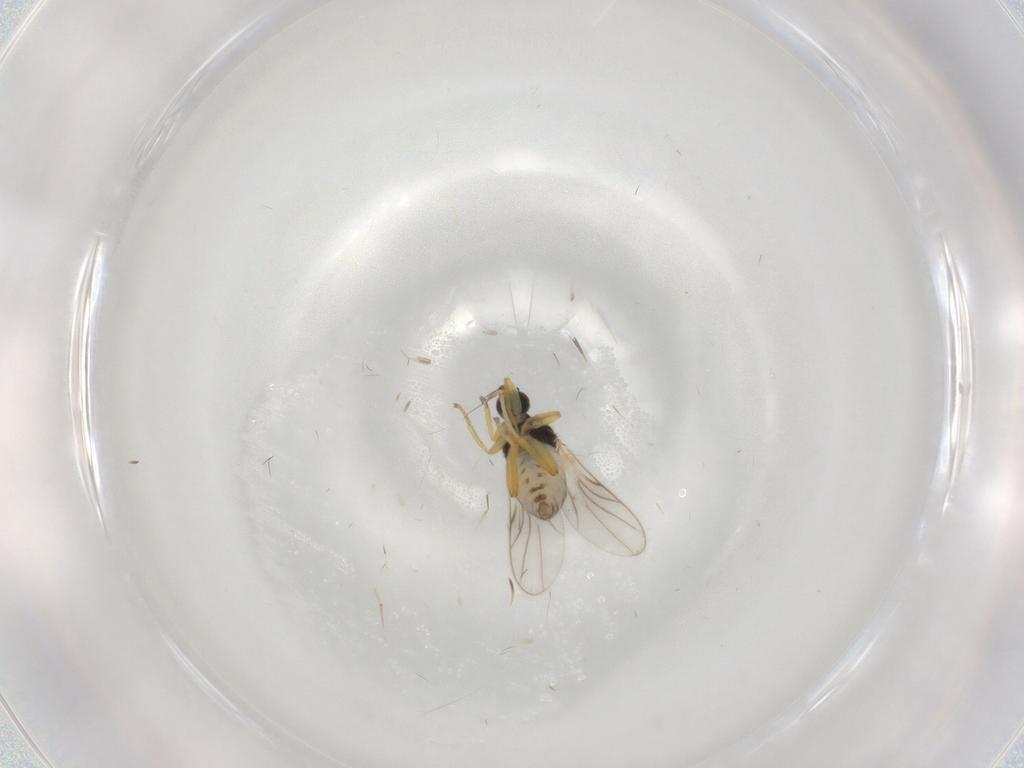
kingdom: Animalia
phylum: Arthropoda
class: Insecta
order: Diptera
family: Hybotidae
